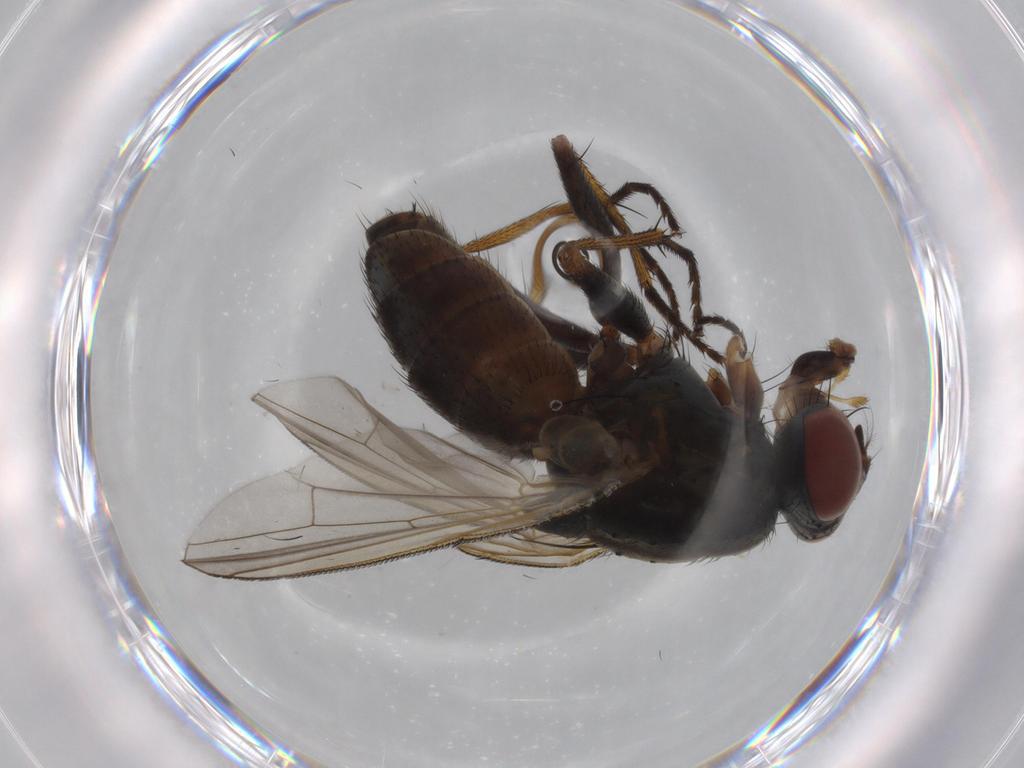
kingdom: Animalia
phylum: Arthropoda
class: Insecta
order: Diptera
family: Muscidae
